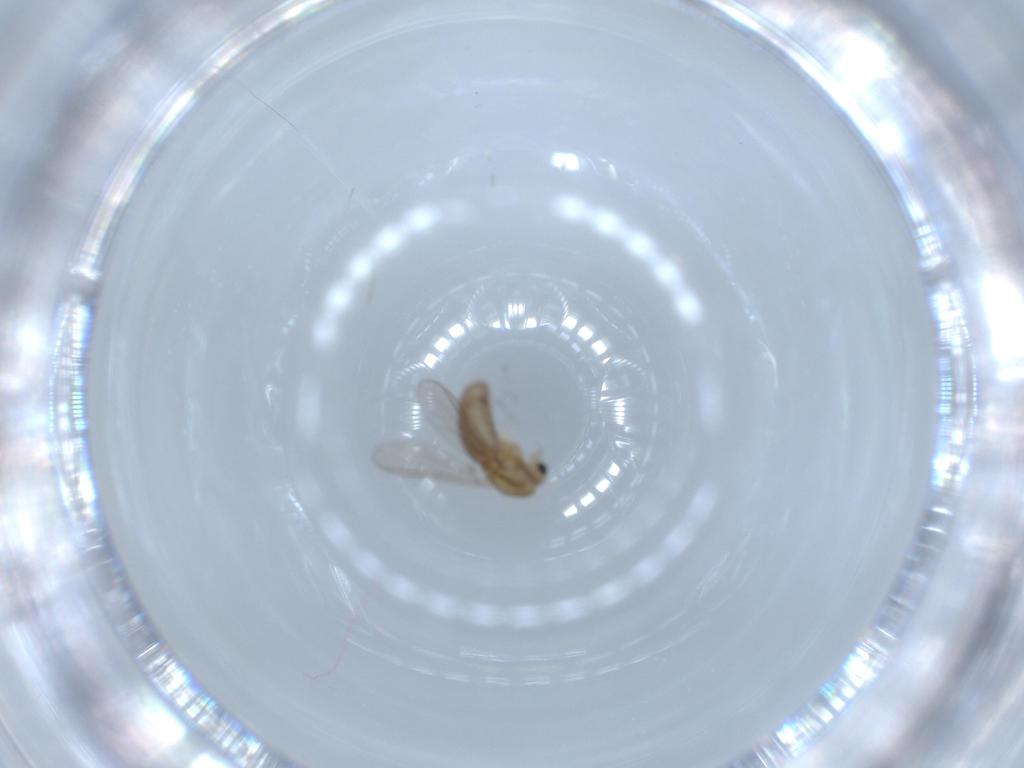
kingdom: Animalia
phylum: Arthropoda
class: Insecta
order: Diptera
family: Chironomidae
